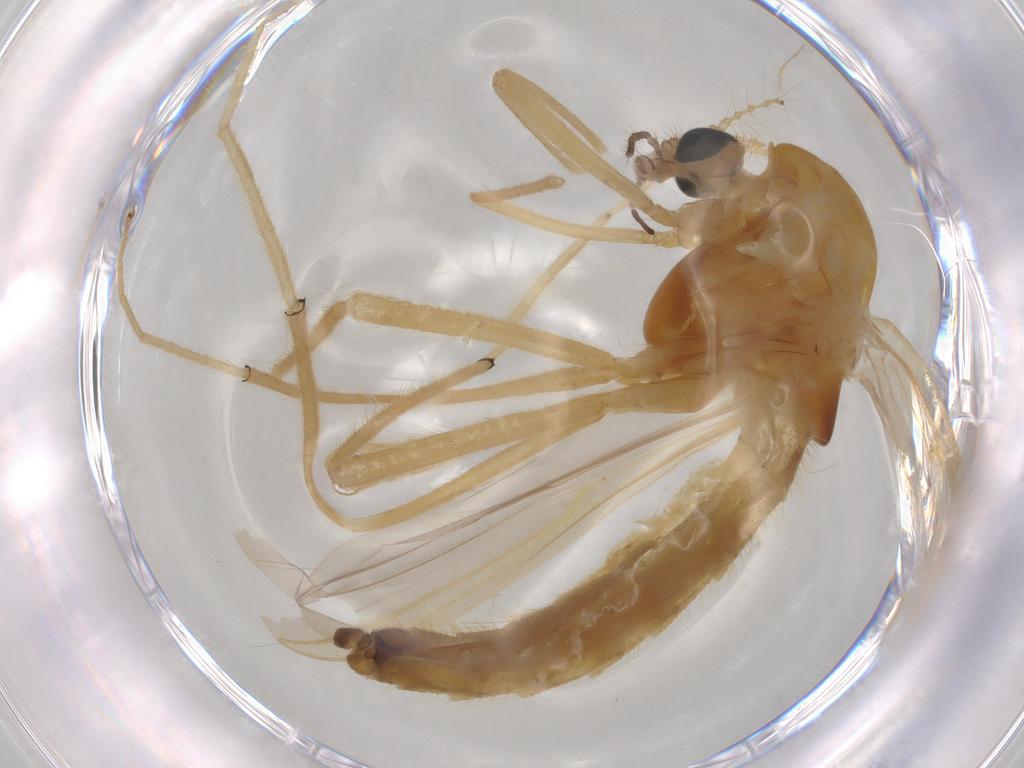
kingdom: Animalia
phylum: Arthropoda
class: Insecta
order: Diptera
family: Chironomidae
